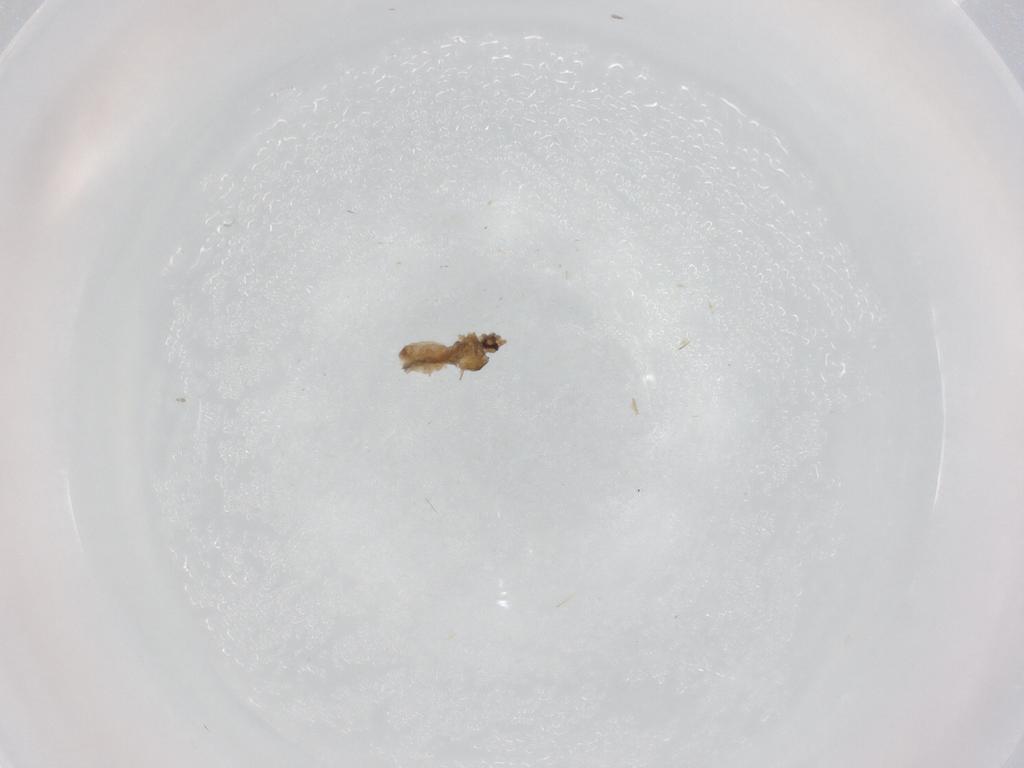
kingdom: Animalia
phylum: Arthropoda
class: Insecta
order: Diptera
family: Cecidomyiidae
